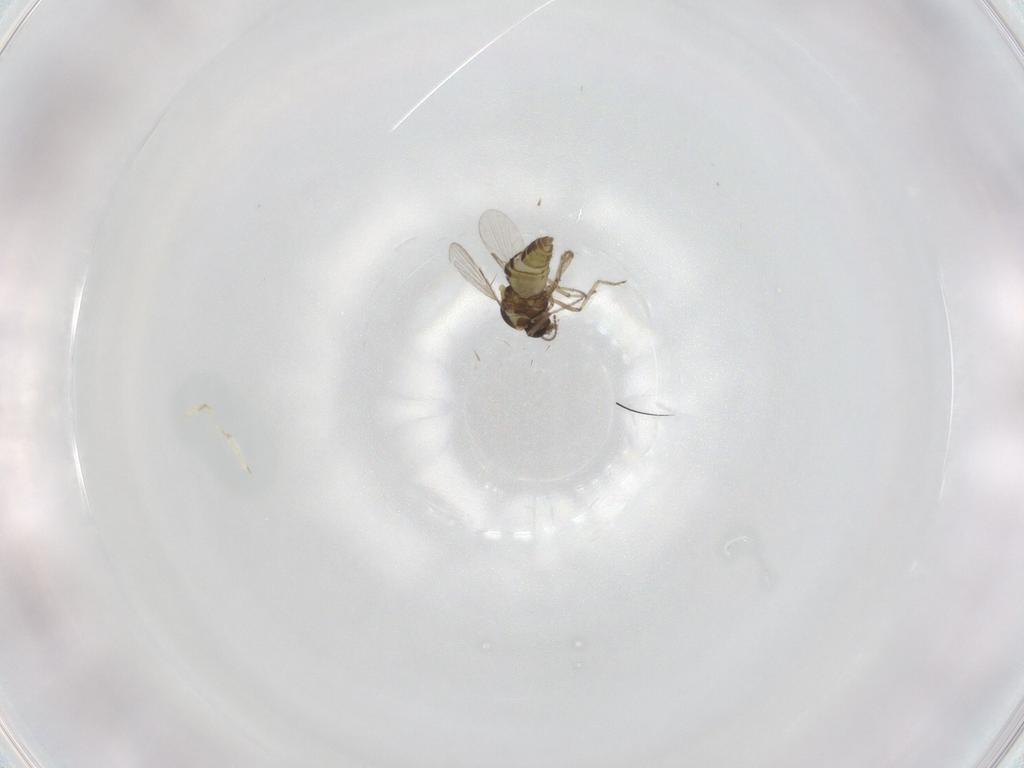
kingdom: Animalia
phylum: Arthropoda
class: Insecta
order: Diptera
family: Ceratopogonidae
